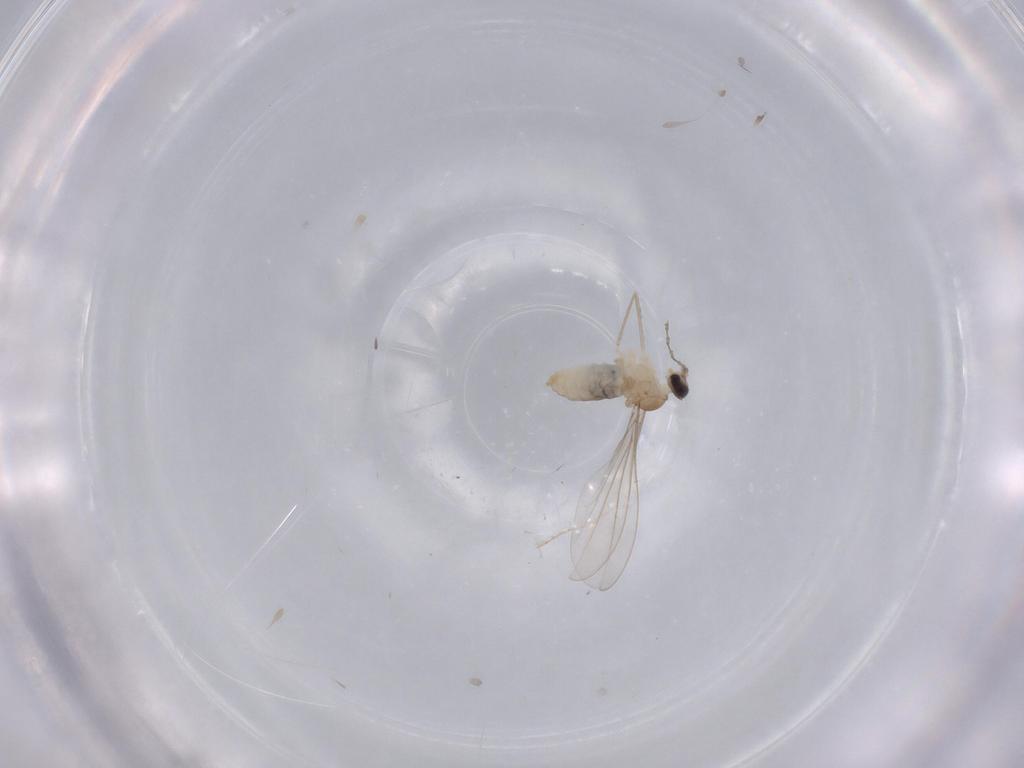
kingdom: Animalia
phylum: Arthropoda
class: Insecta
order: Diptera
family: Cecidomyiidae
